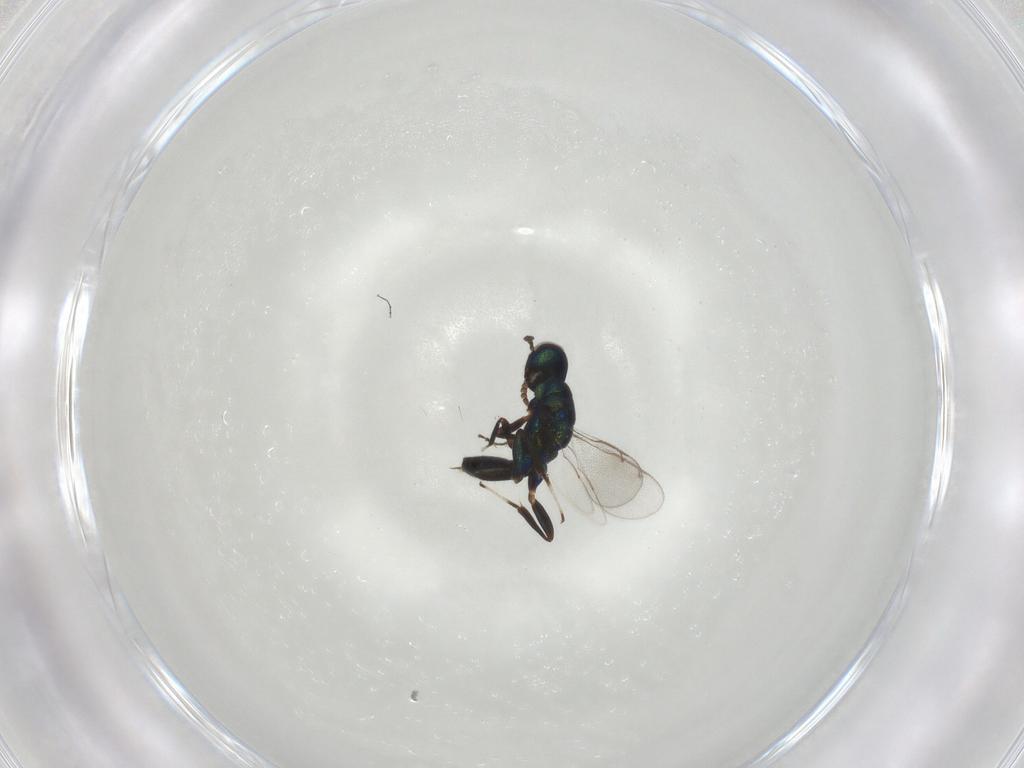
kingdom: Animalia
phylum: Arthropoda
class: Insecta
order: Hymenoptera
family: Cleonyminae
